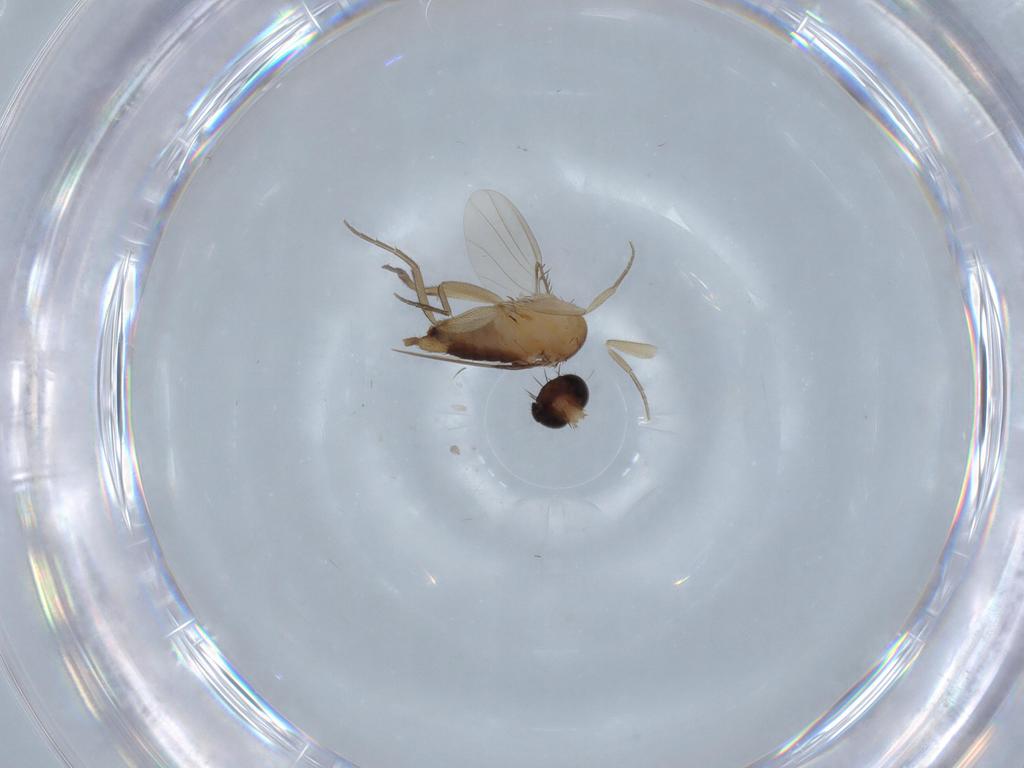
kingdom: Animalia
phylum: Arthropoda
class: Insecta
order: Diptera
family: Phoridae
